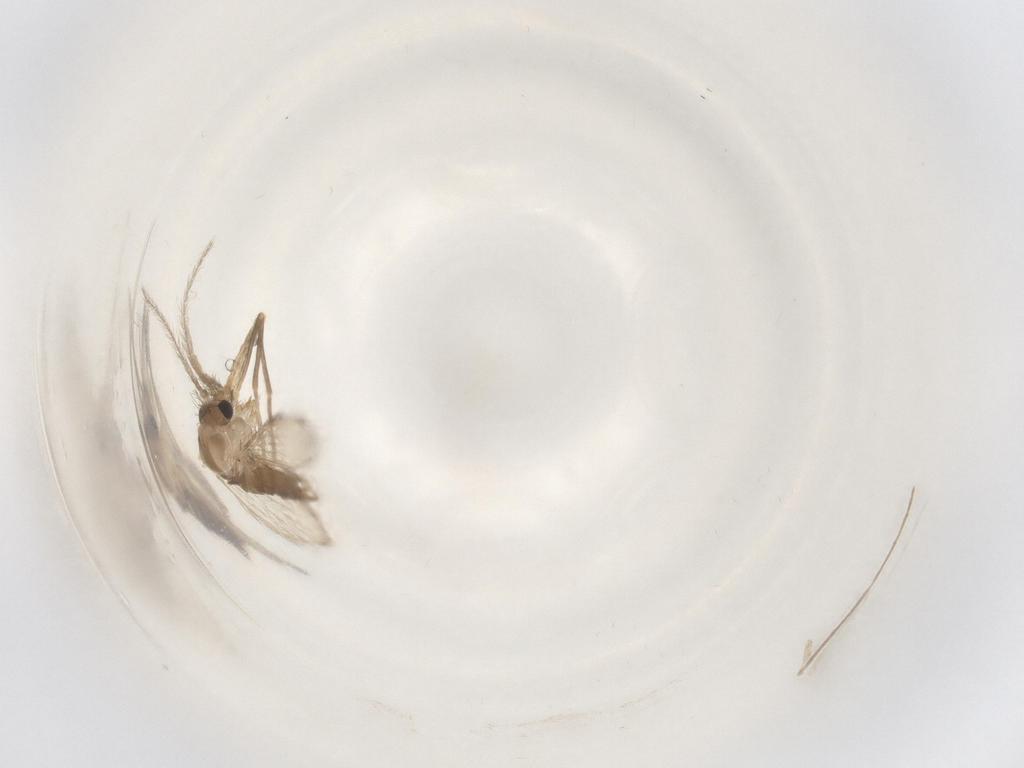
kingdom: Animalia
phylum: Arthropoda
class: Insecta
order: Diptera
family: Psychodidae
